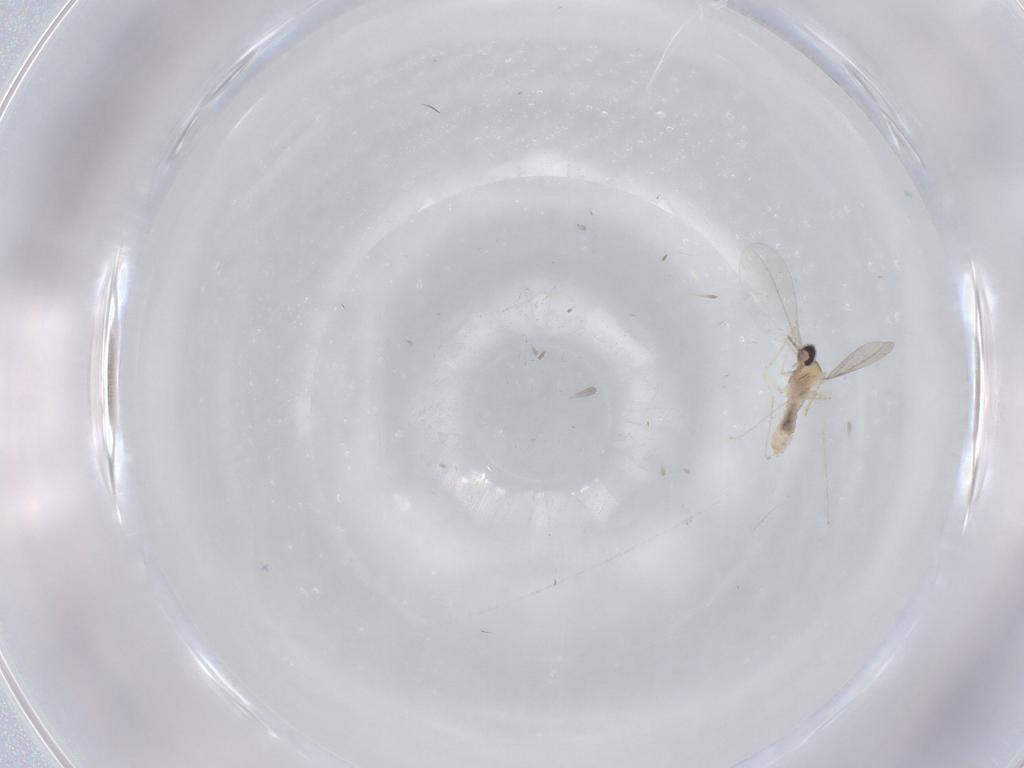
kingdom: Animalia
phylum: Arthropoda
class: Insecta
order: Diptera
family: Cecidomyiidae
